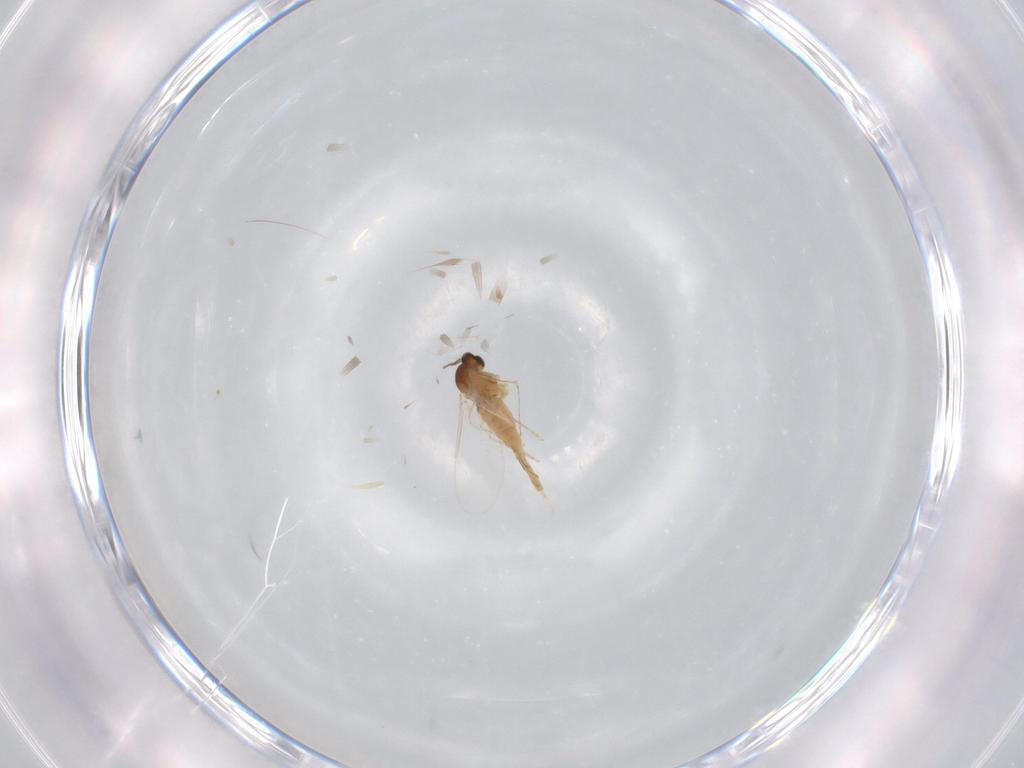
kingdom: Animalia
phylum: Arthropoda
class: Insecta
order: Diptera
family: Cecidomyiidae
